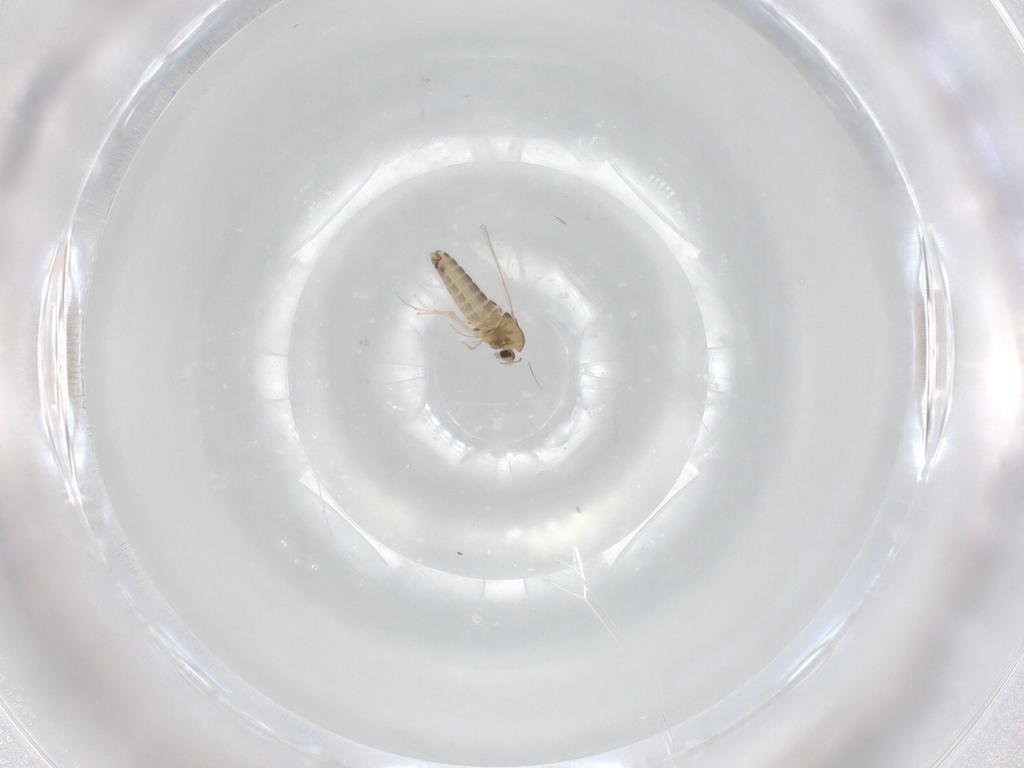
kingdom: Animalia
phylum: Arthropoda
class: Insecta
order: Diptera
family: Chironomidae
